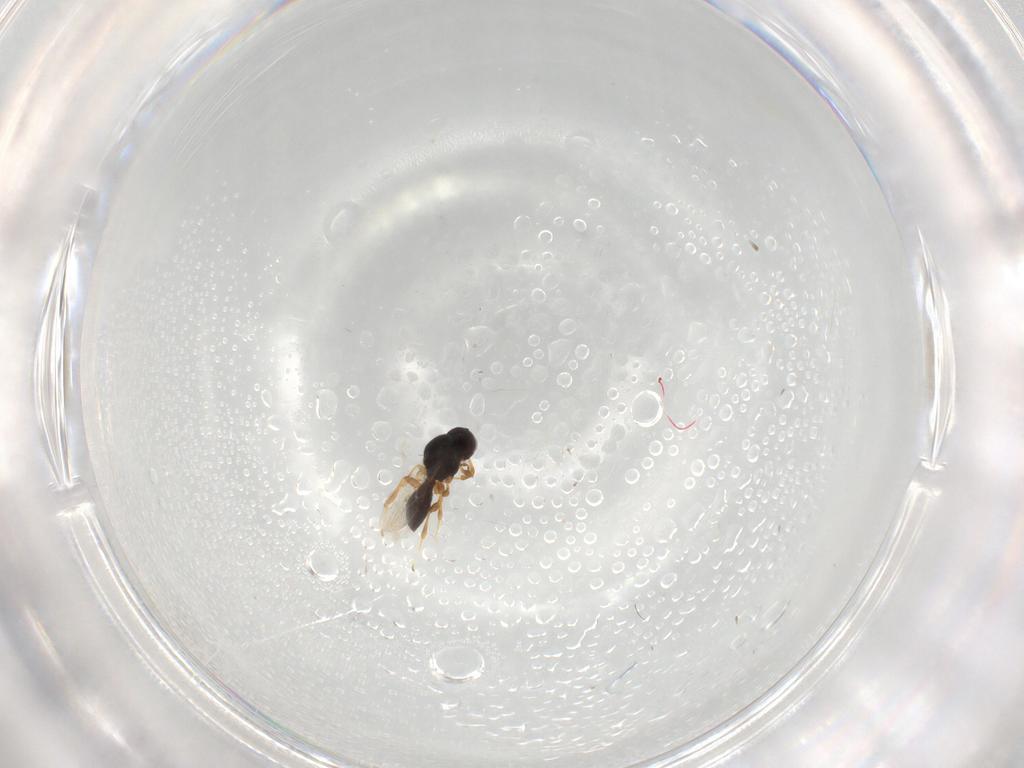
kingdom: Animalia
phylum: Arthropoda
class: Insecta
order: Hymenoptera
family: Platygastridae
